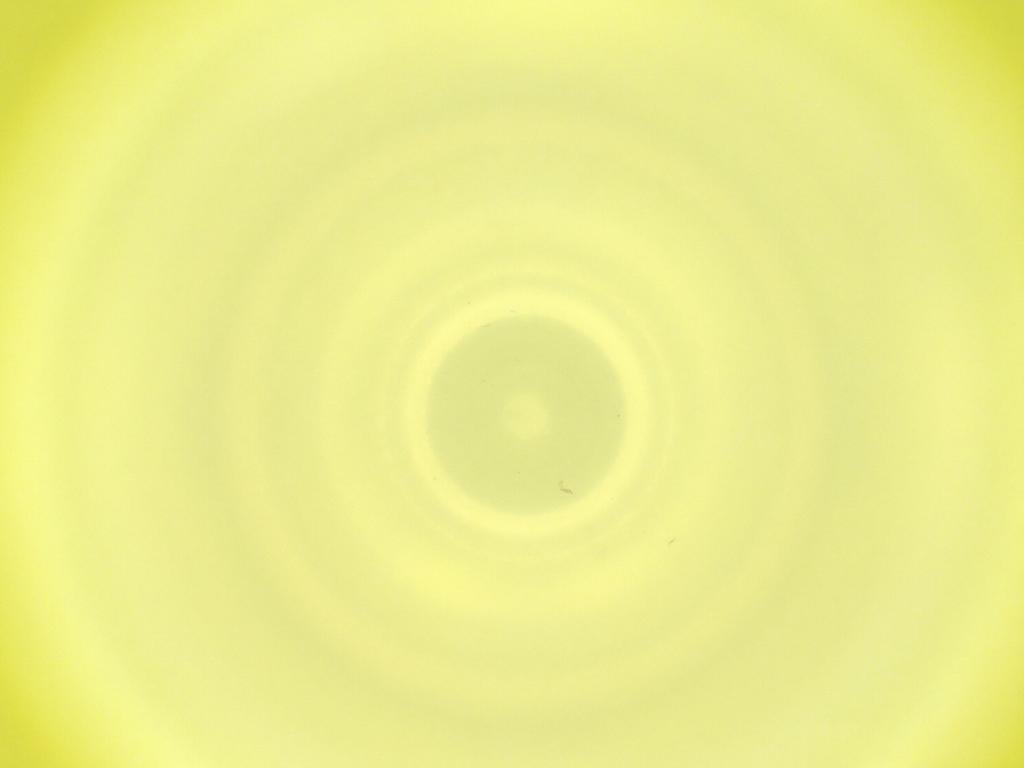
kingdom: Animalia
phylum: Arthropoda
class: Insecta
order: Diptera
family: Cecidomyiidae
